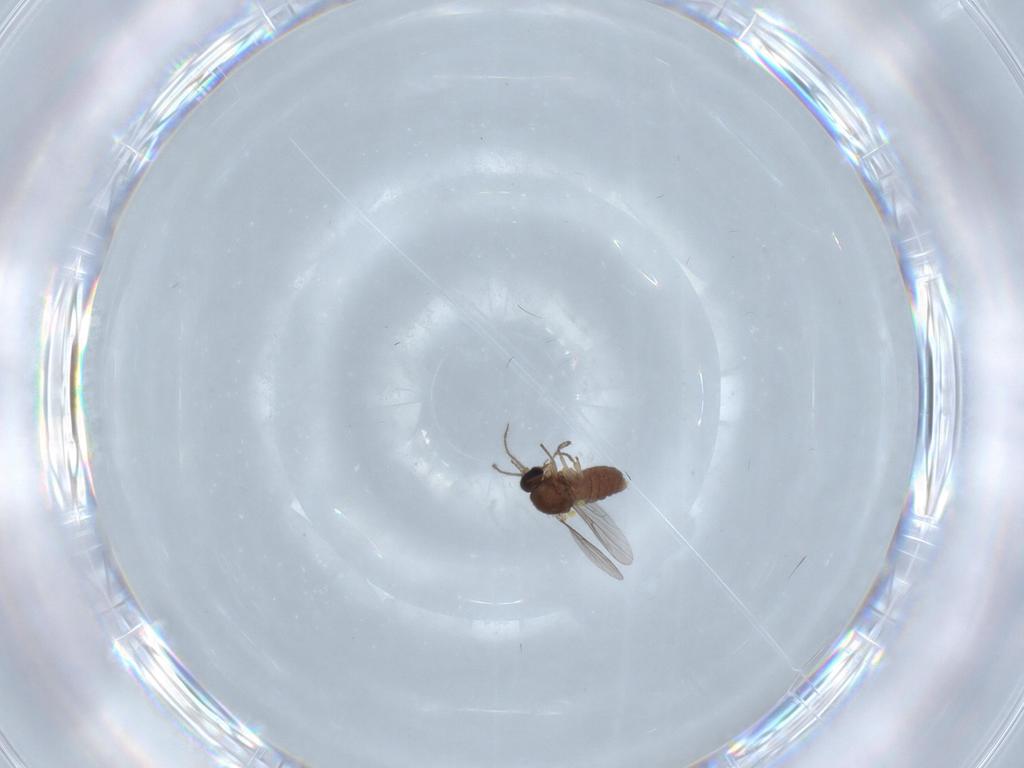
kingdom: Animalia
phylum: Arthropoda
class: Insecta
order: Diptera
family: Ceratopogonidae
